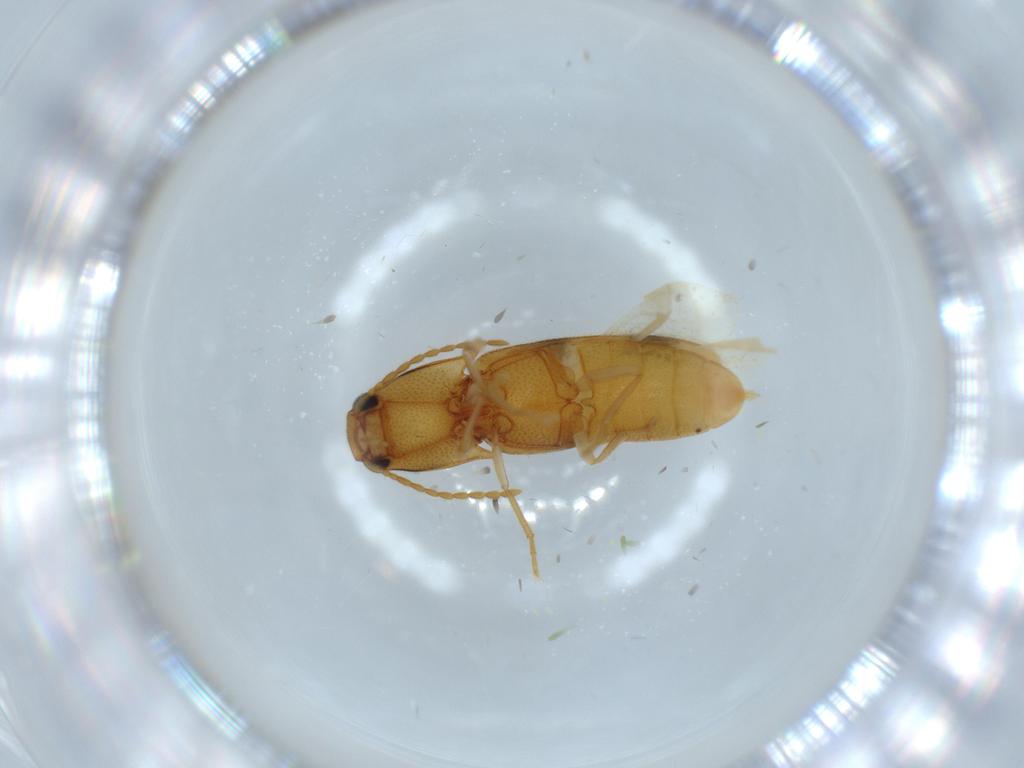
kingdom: Animalia
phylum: Arthropoda
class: Insecta
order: Coleoptera
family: Elateridae
